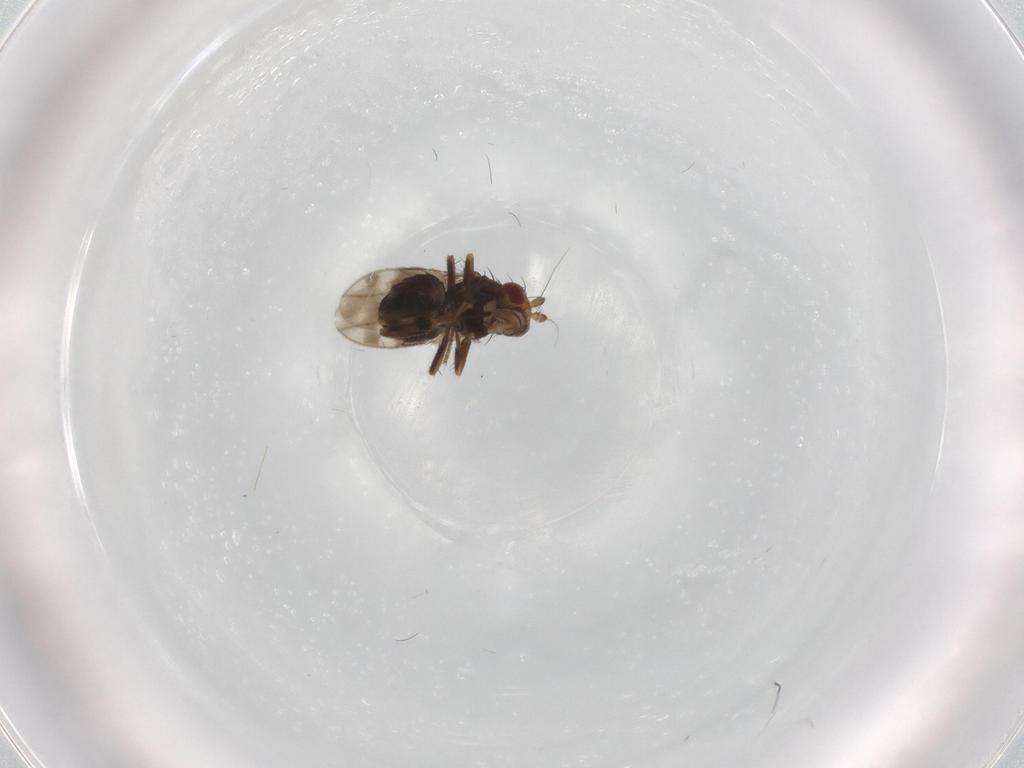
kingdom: Animalia
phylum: Arthropoda
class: Insecta
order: Diptera
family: Sphaeroceridae
